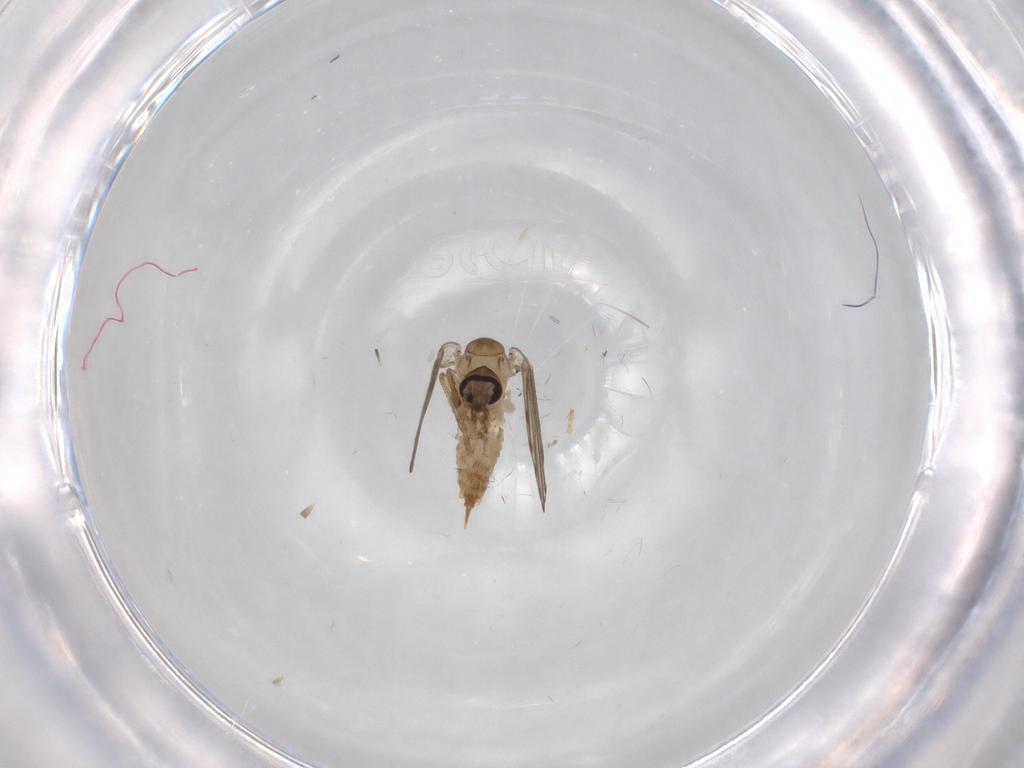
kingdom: Animalia
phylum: Arthropoda
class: Insecta
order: Diptera
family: Psychodidae
